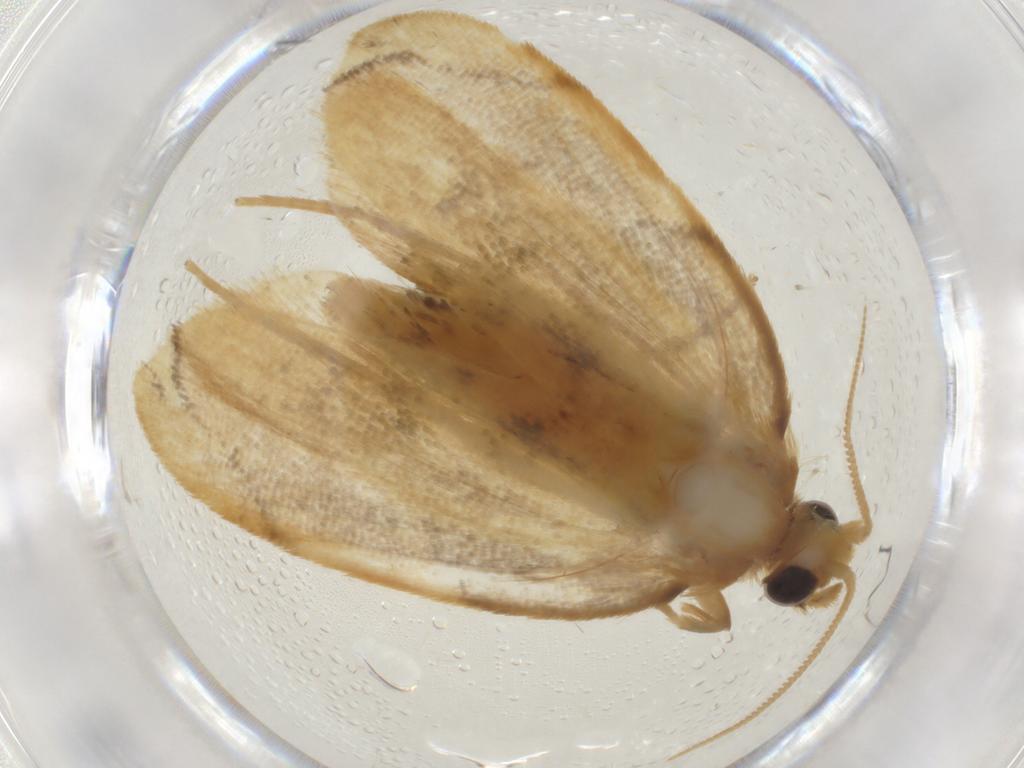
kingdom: Animalia
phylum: Arthropoda
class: Insecta
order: Lepidoptera
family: Psychidae
